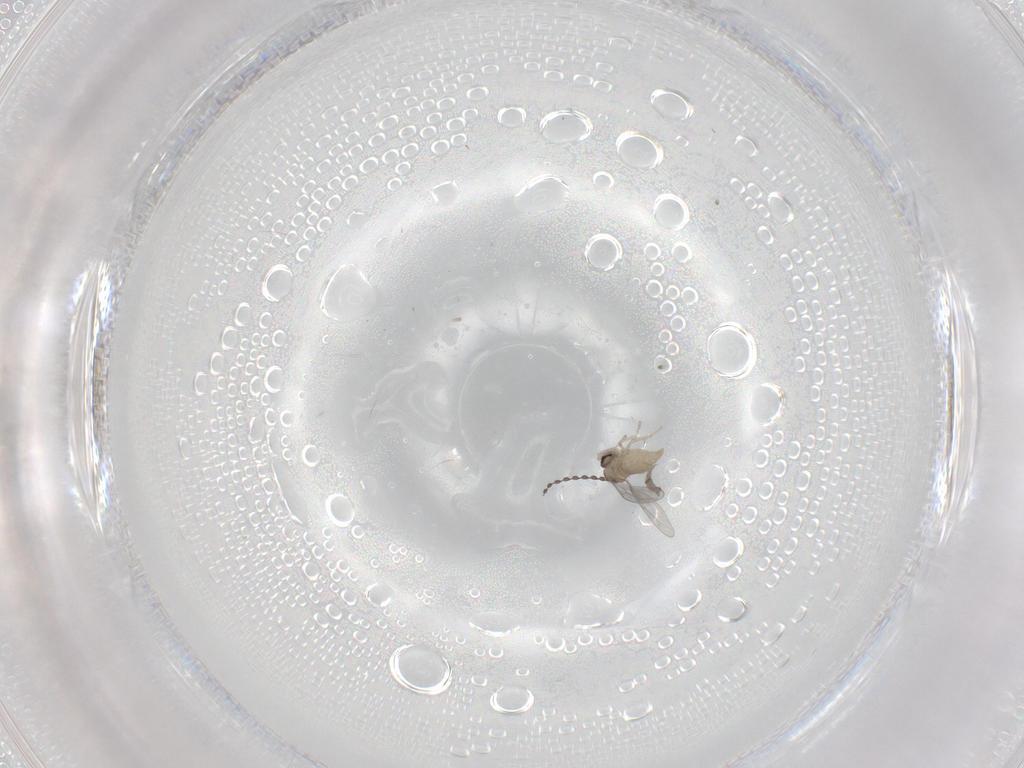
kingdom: Animalia
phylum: Arthropoda
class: Insecta
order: Diptera
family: Cecidomyiidae
